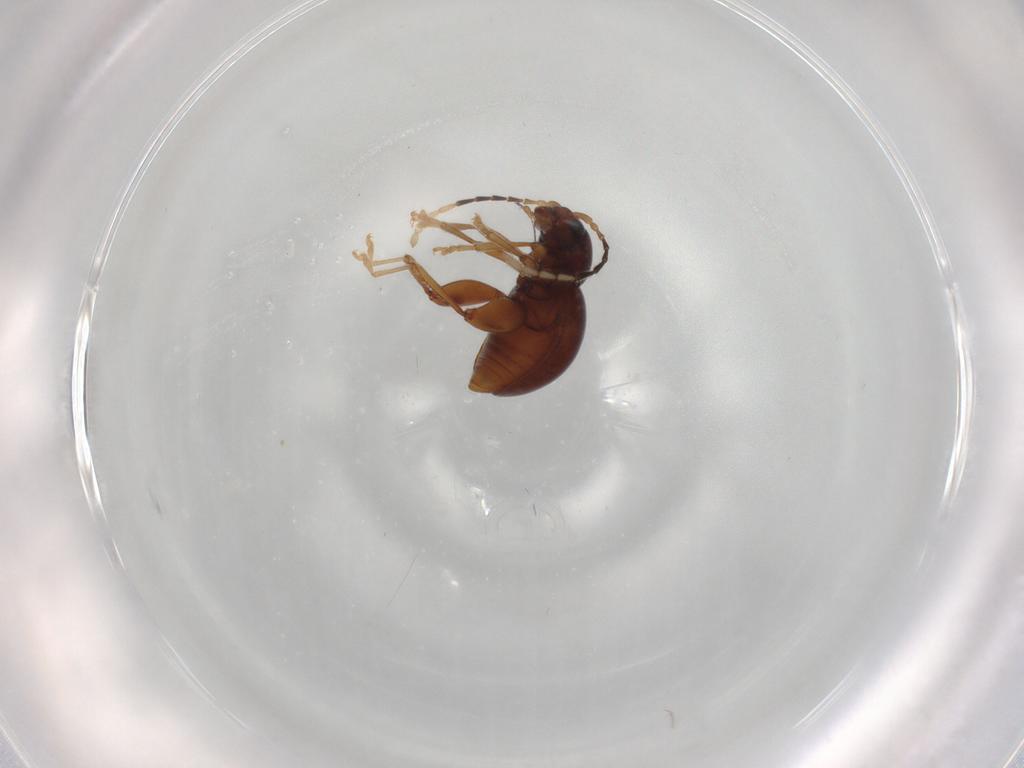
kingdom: Animalia
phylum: Arthropoda
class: Insecta
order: Coleoptera
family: Chrysomelidae
